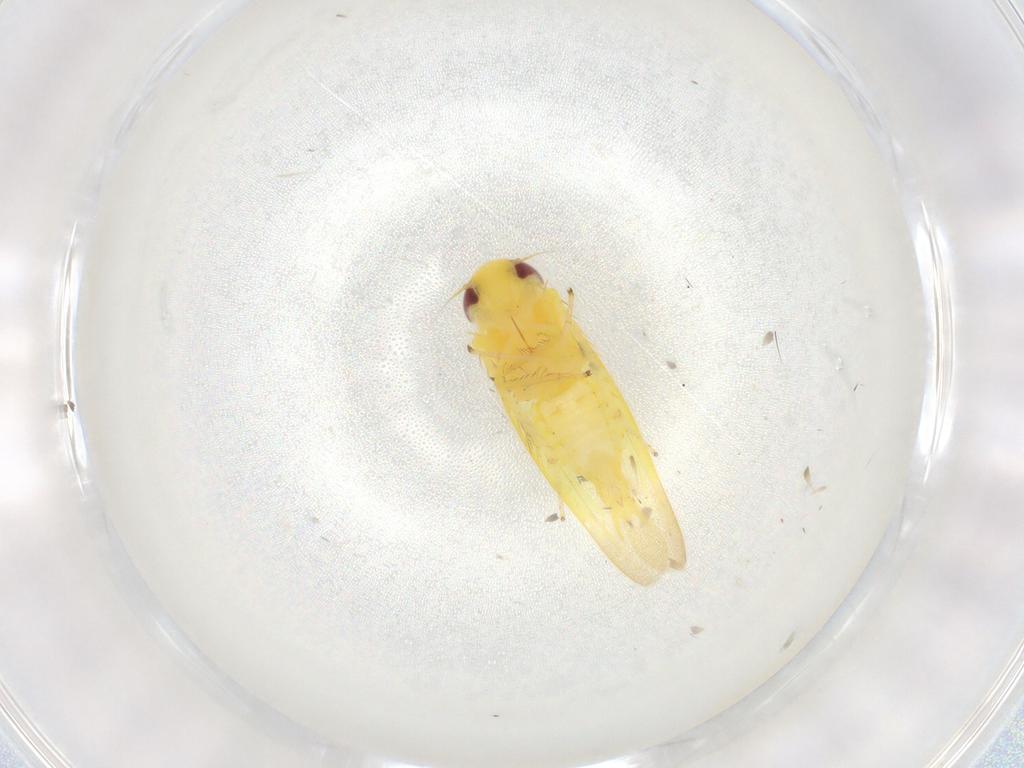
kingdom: Animalia
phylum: Arthropoda
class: Insecta
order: Hemiptera
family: Cicadellidae
